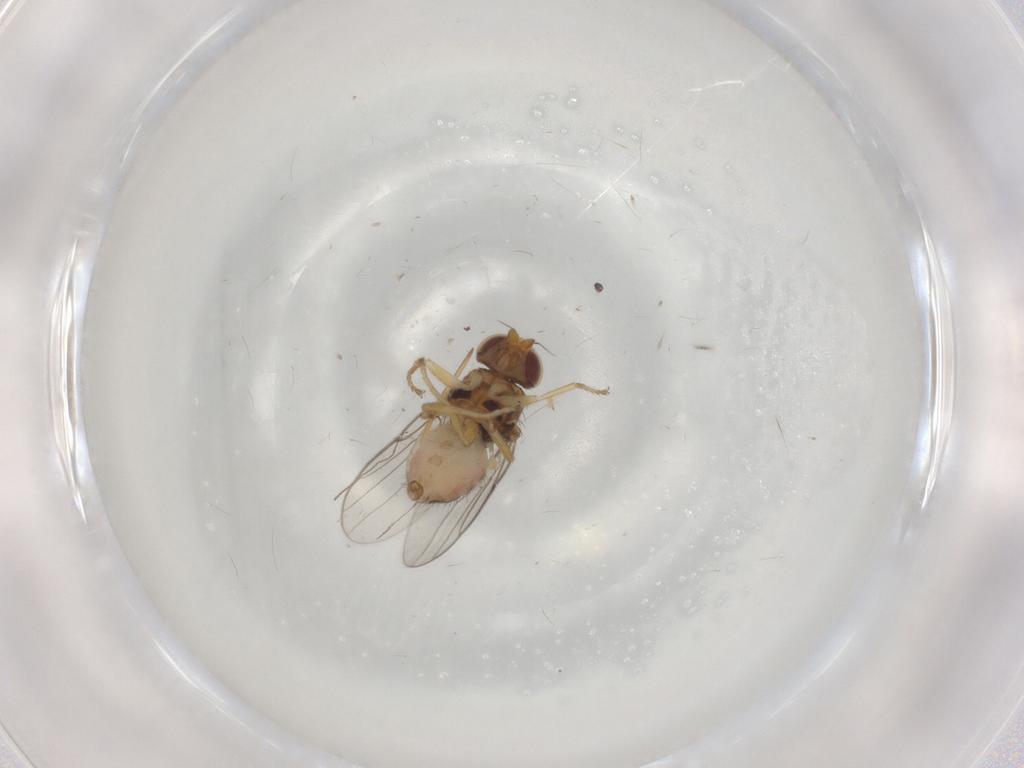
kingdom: Animalia
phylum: Arthropoda
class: Insecta
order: Diptera
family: Chloropidae
